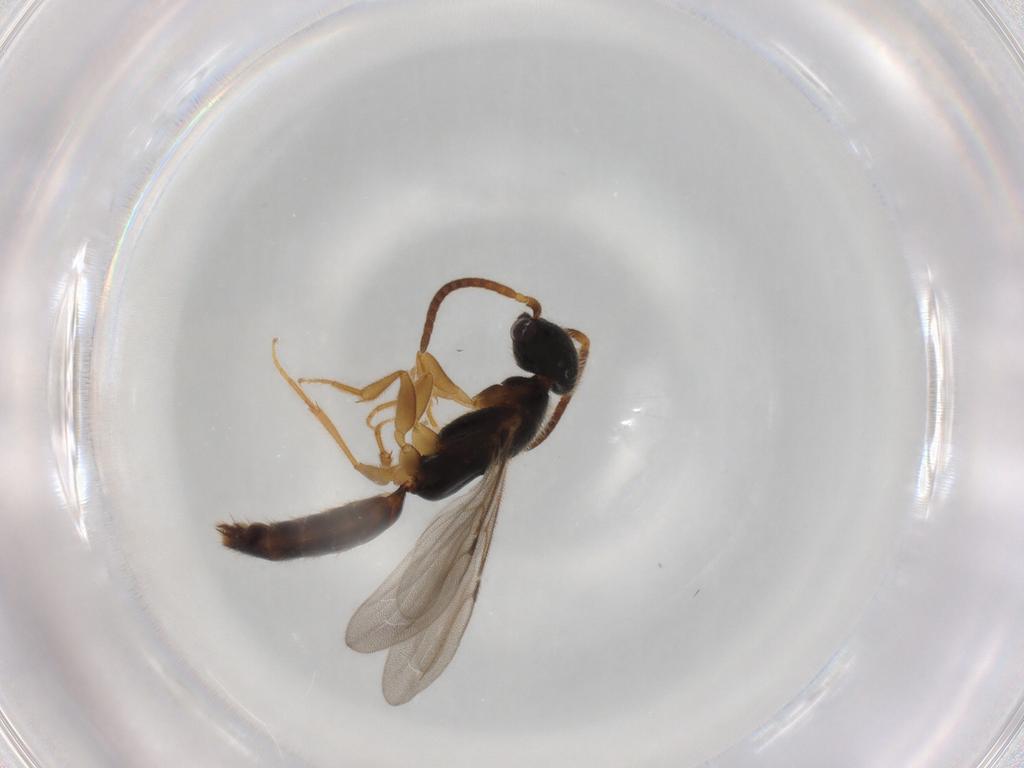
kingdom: Animalia
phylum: Arthropoda
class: Insecta
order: Hymenoptera
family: Bethylidae
